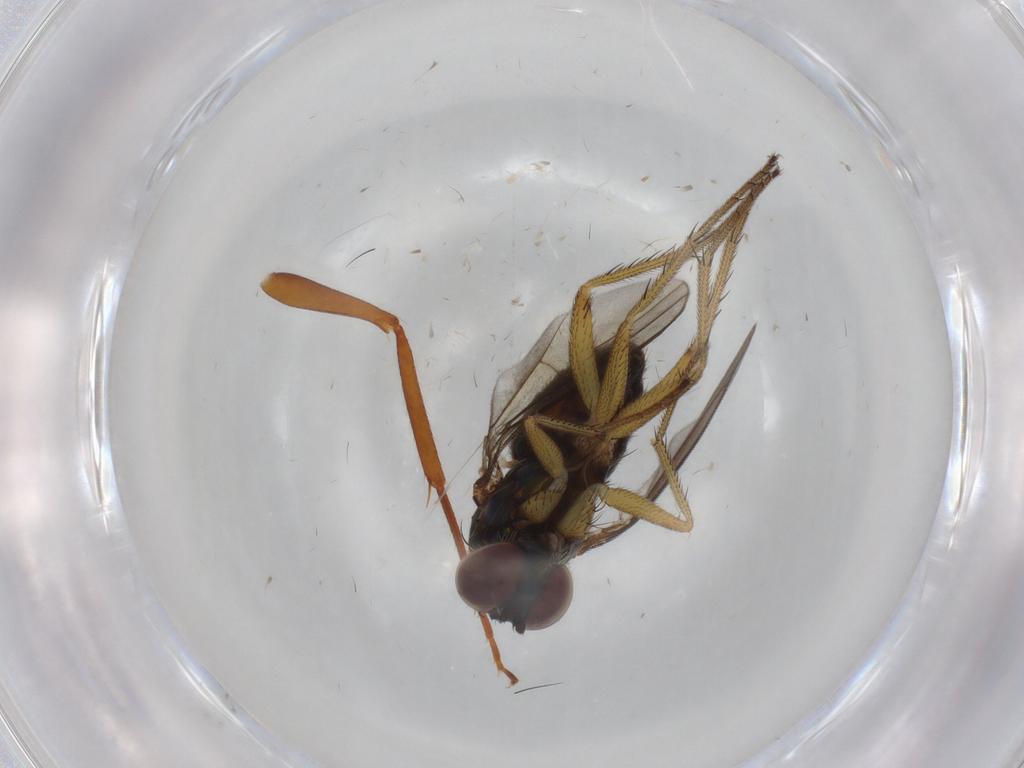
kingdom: Animalia
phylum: Arthropoda
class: Insecta
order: Diptera
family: Dolichopodidae
